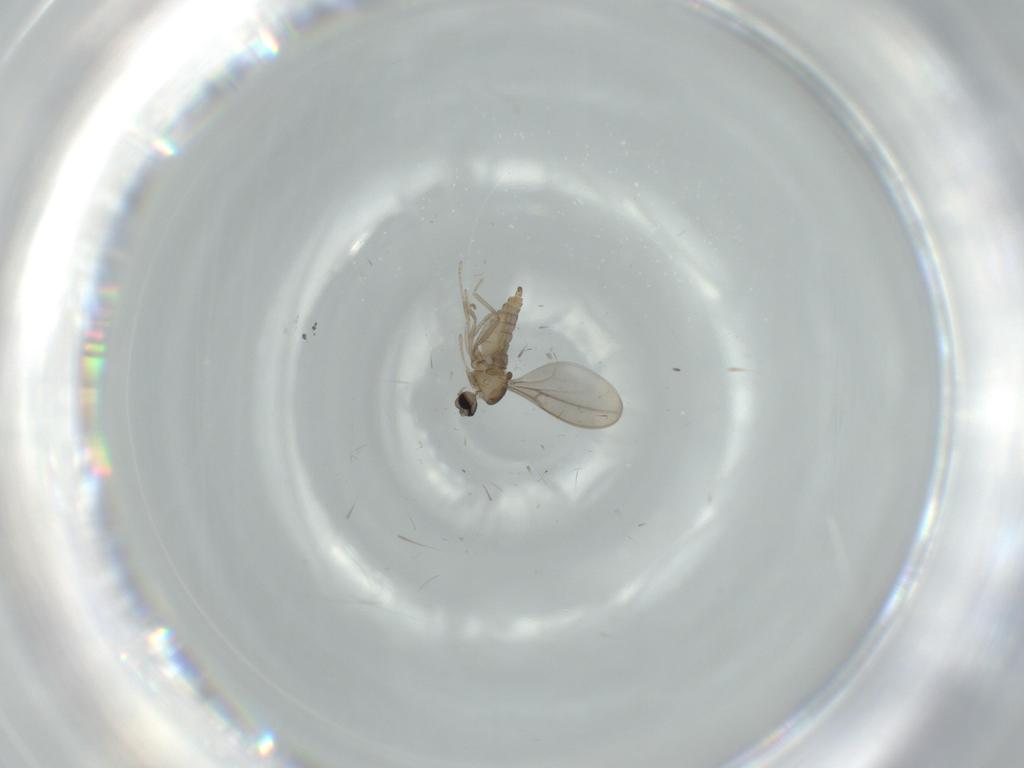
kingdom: Animalia
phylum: Arthropoda
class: Insecta
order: Diptera
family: Cecidomyiidae
